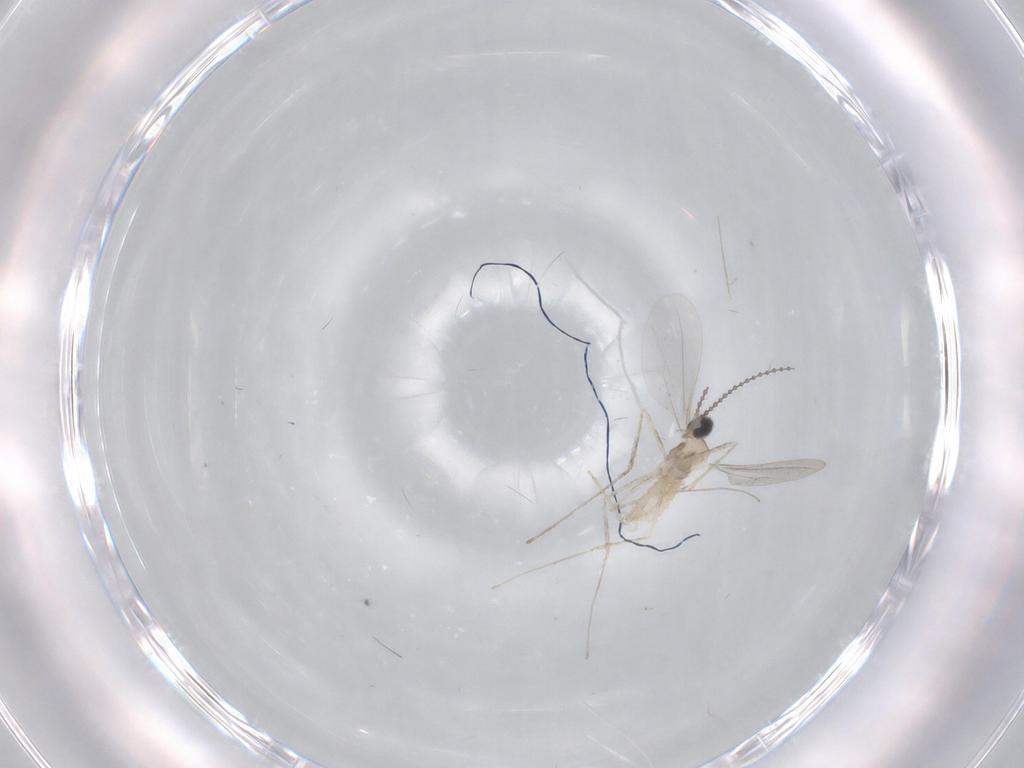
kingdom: Animalia
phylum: Arthropoda
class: Insecta
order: Diptera
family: Cecidomyiidae
